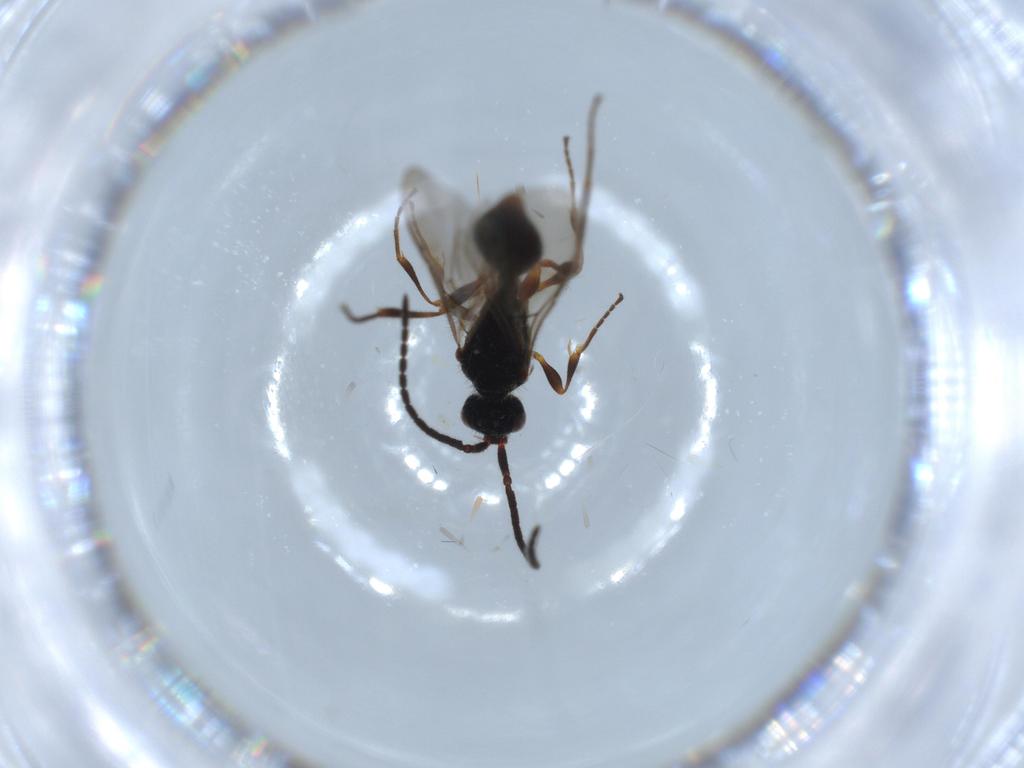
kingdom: Animalia
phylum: Arthropoda
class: Insecta
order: Hymenoptera
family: Diapriidae
